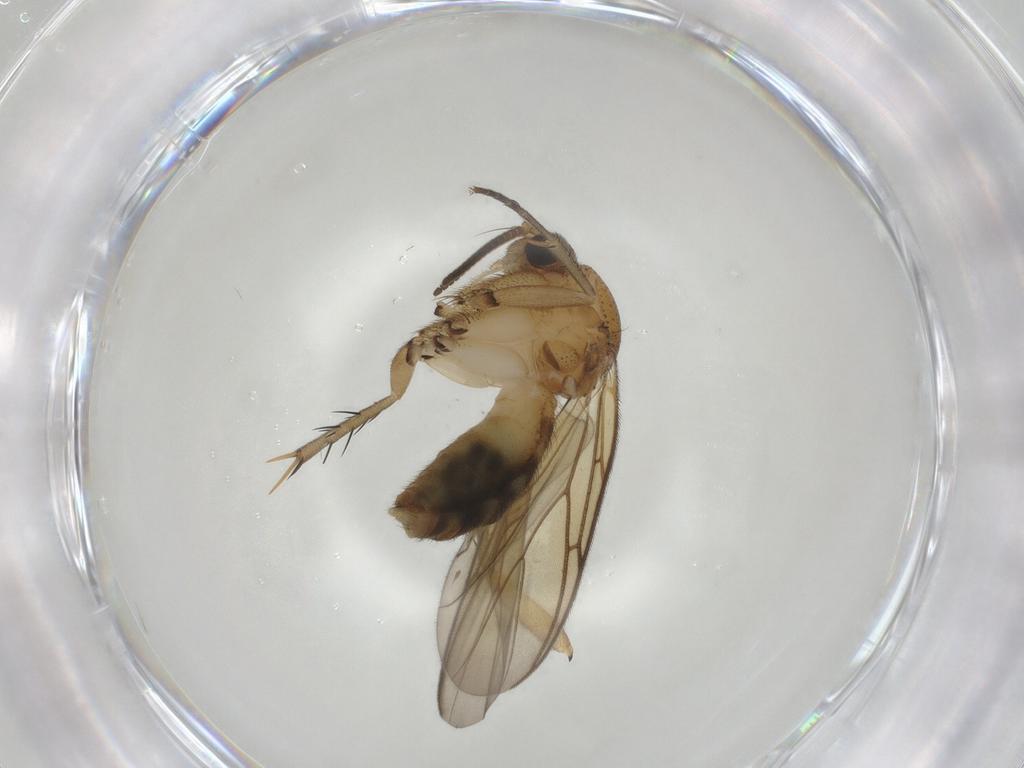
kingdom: Animalia
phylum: Arthropoda
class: Insecta
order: Diptera
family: Mycetophilidae
